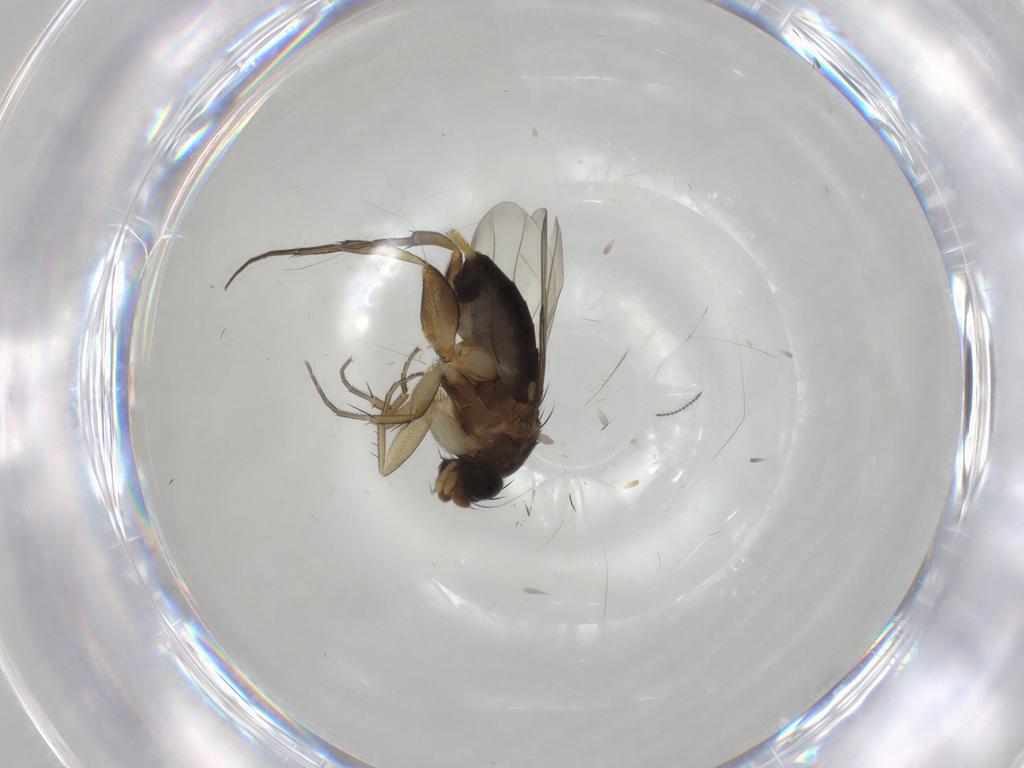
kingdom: Animalia
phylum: Arthropoda
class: Insecta
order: Diptera
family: Phoridae
